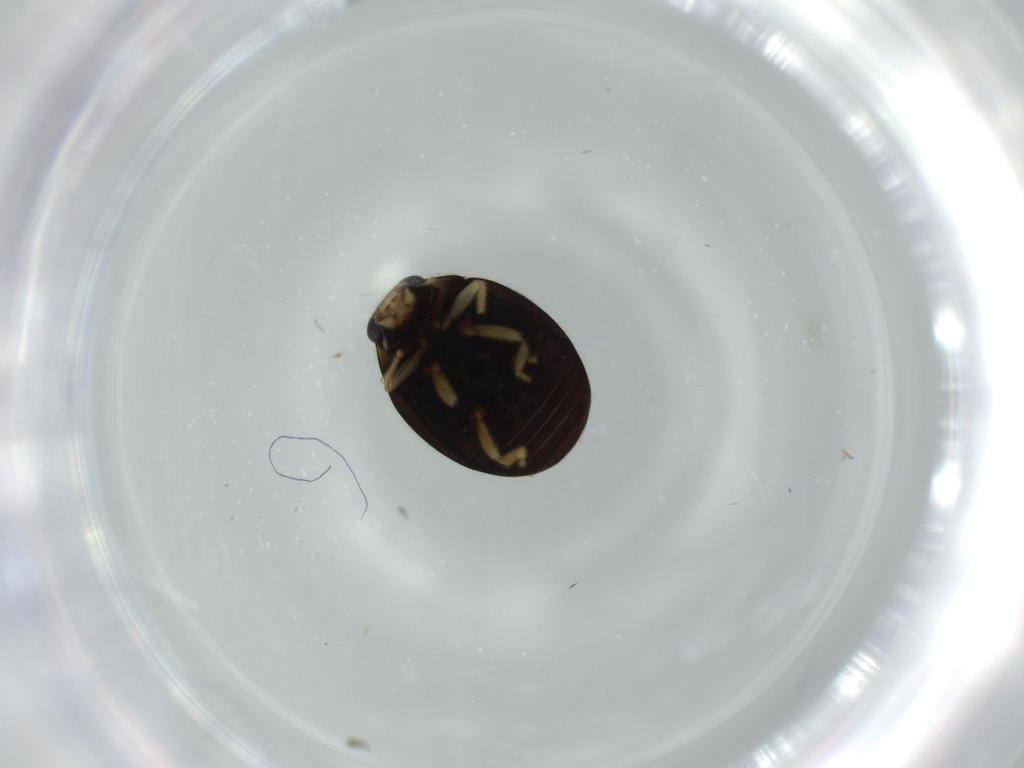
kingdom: Animalia
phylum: Arthropoda
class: Insecta
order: Coleoptera
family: Coccinellidae
